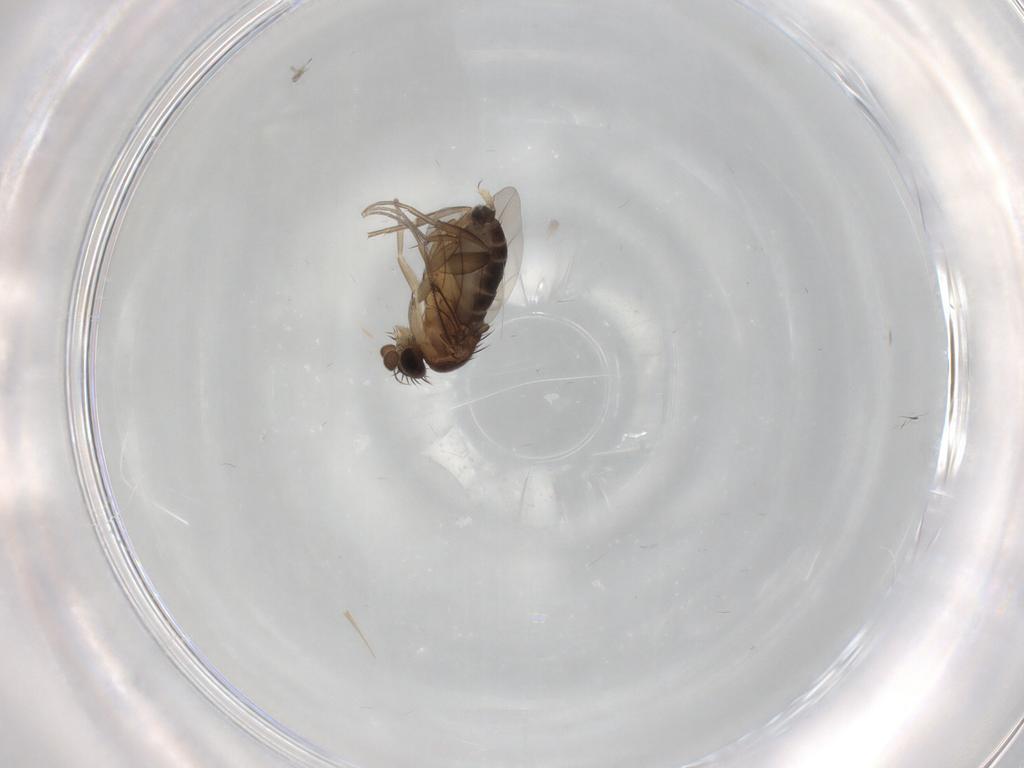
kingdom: Animalia
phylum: Arthropoda
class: Insecta
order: Diptera
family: Phoridae
